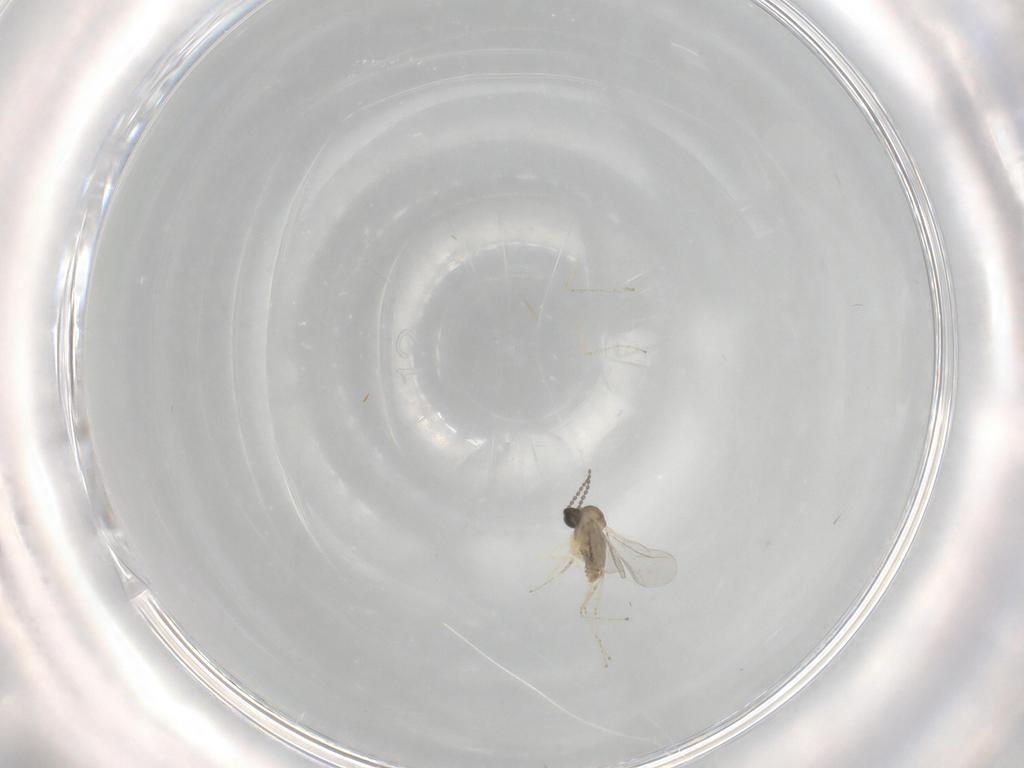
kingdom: Animalia
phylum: Arthropoda
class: Insecta
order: Diptera
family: Cecidomyiidae
